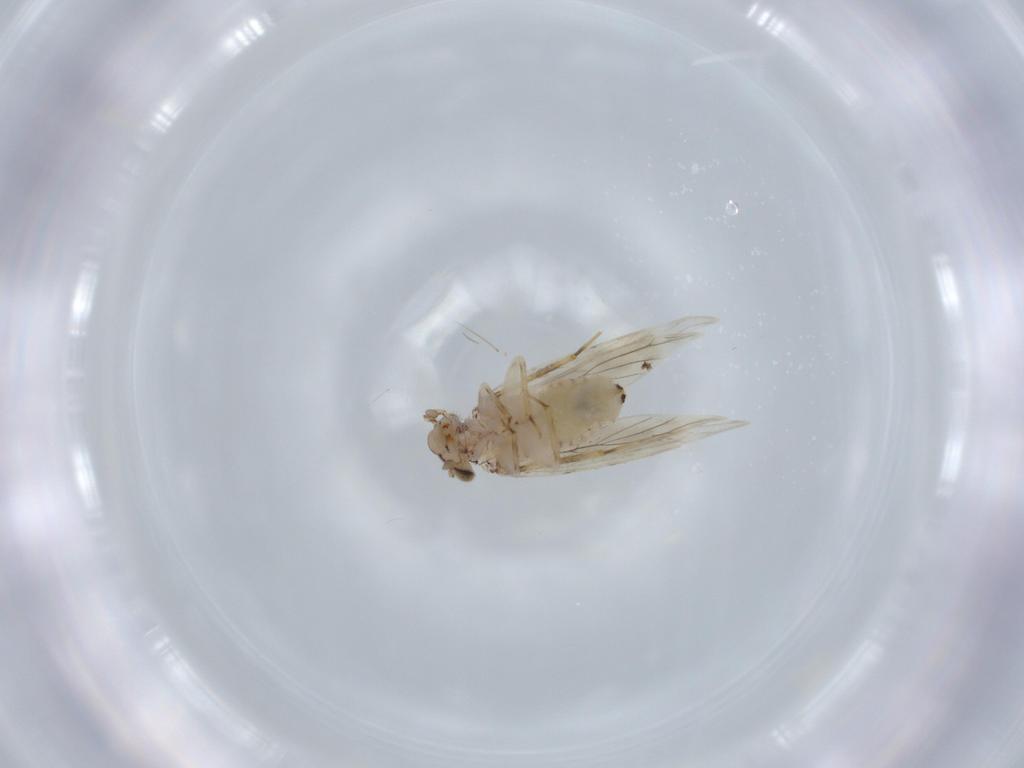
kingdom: Animalia
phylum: Arthropoda
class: Insecta
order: Psocodea
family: Lepidopsocidae
